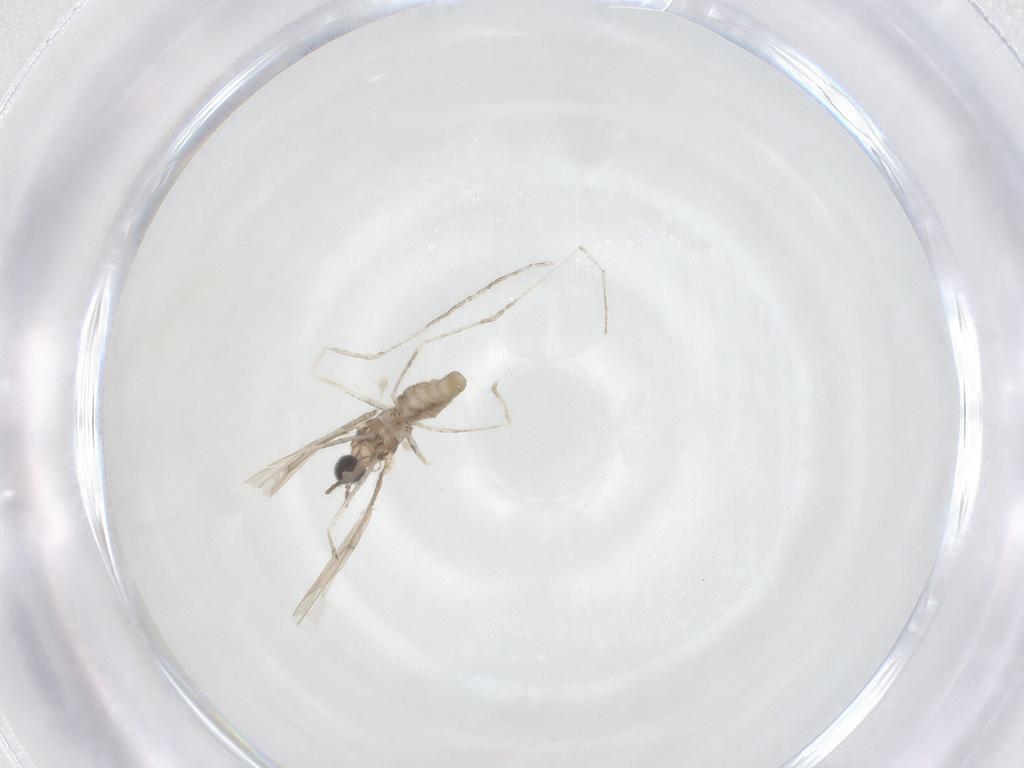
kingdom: Animalia
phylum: Arthropoda
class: Insecta
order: Diptera
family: Cecidomyiidae
